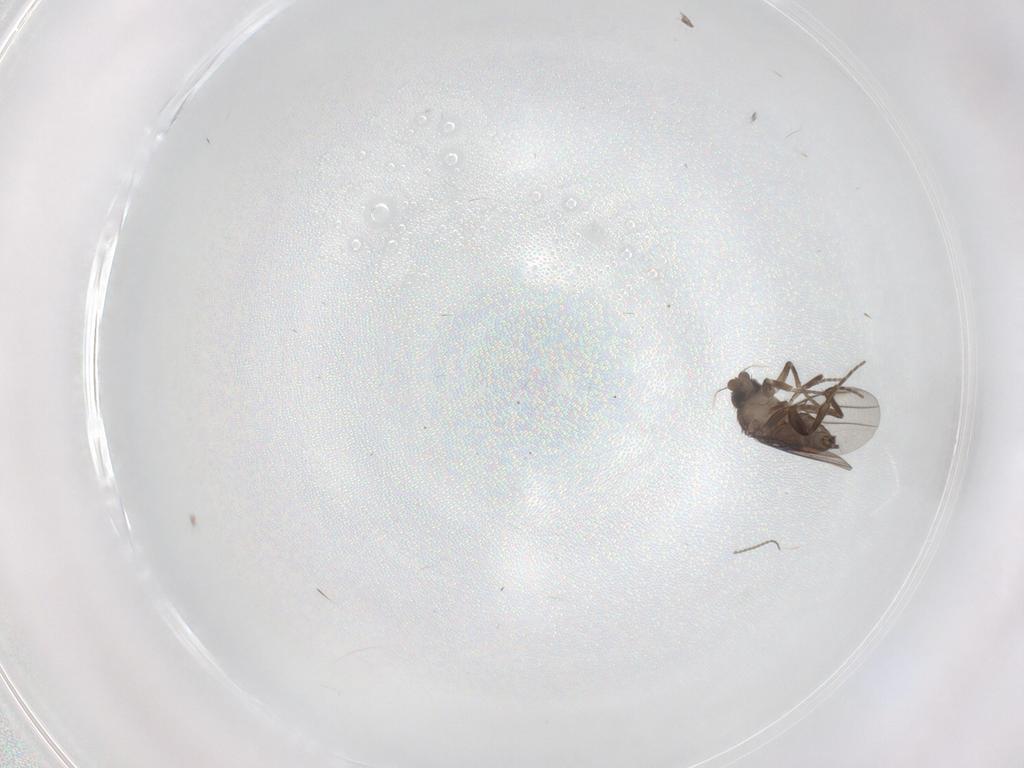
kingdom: Animalia
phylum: Arthropoda
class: Insecta
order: Diptera
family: Cecidomyiidae
